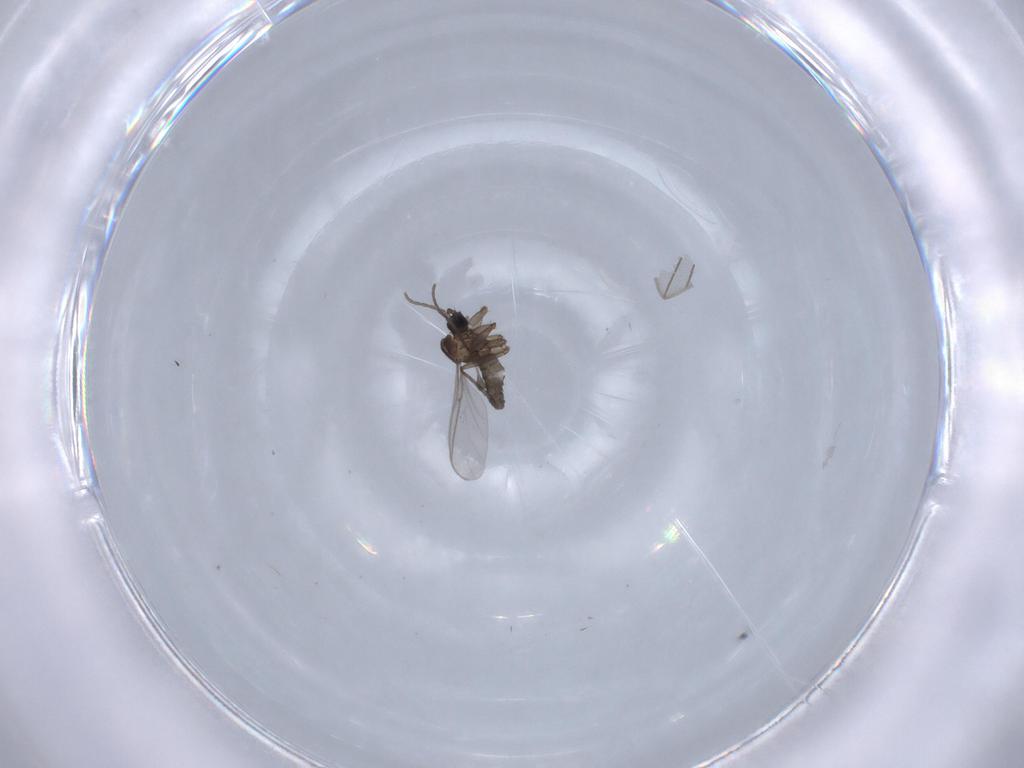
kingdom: Animalia
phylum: Arthropoda
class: Insecta
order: Diptera
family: Sciaridae
